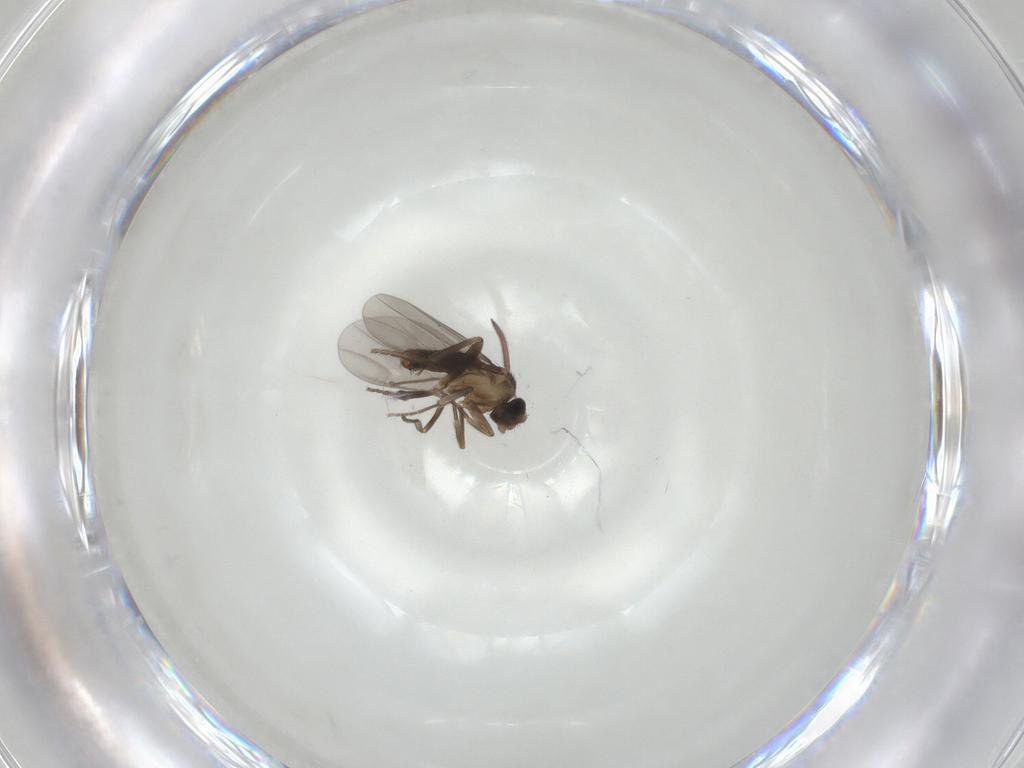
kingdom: Animalia
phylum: Arthropoda
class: Insecta
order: Diptera
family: Phoridae
